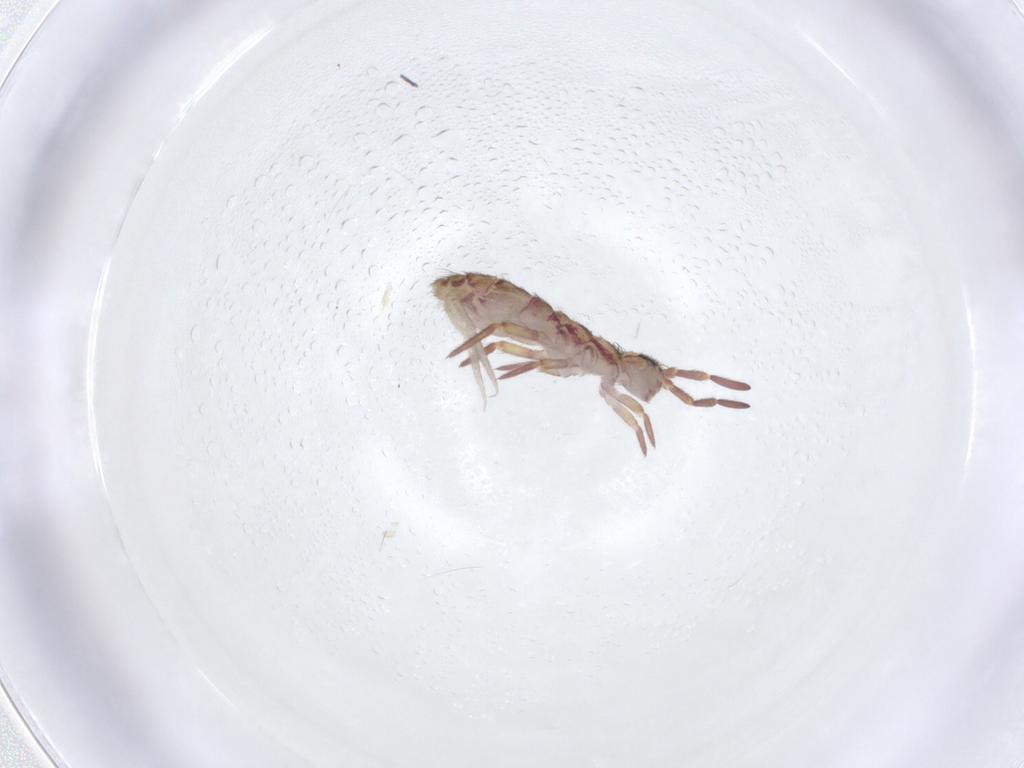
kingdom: Animalia
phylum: Arthropoda
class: Collembola
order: Entomobryomorpha
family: Isotomidae
